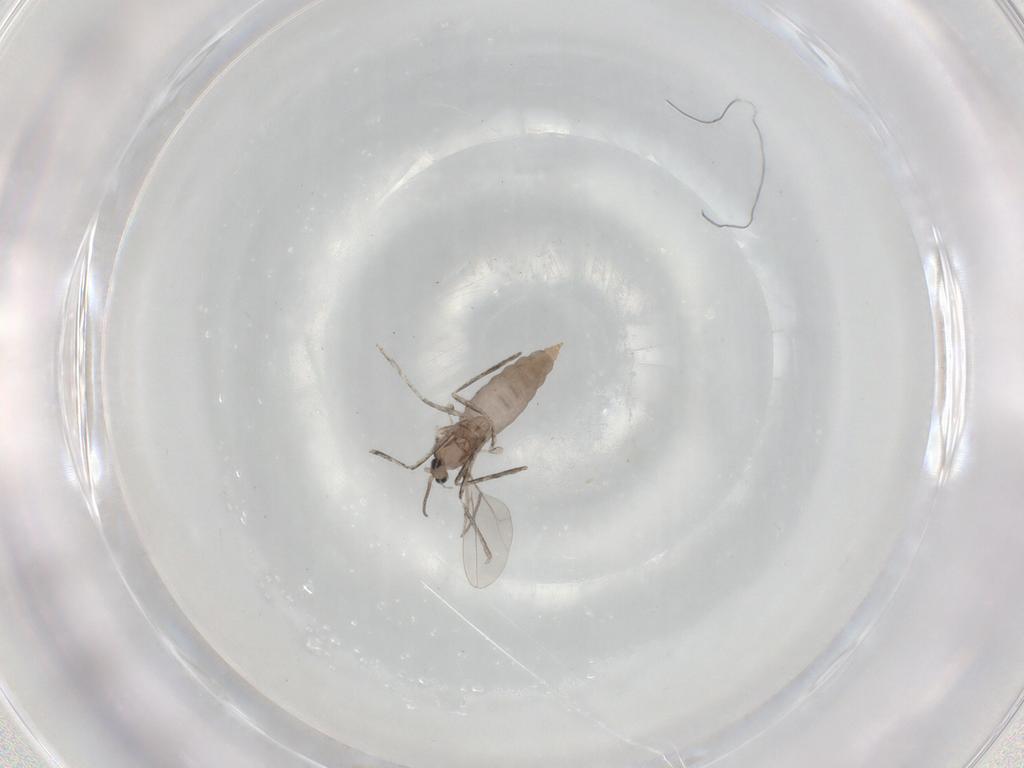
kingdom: Animalia
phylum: Arthropoda
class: Insecta
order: Diptera
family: Cecidomyiidae
